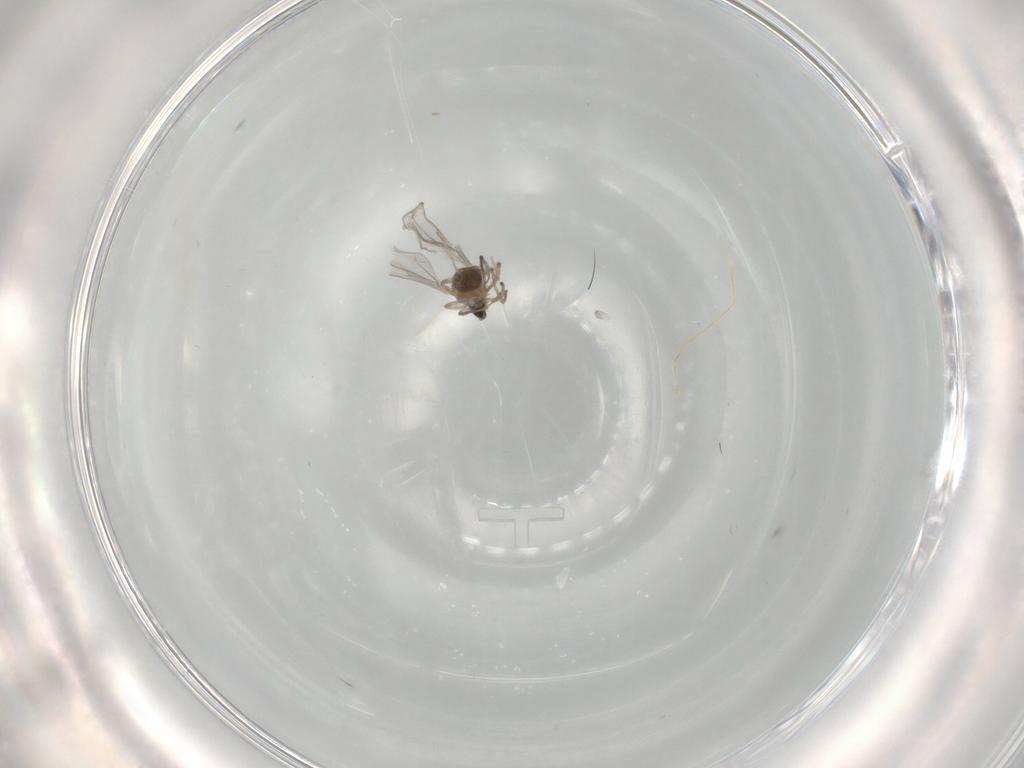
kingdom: Animalia
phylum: Arthropoda
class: Insecta
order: Diptera
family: Cecidomyiidae
